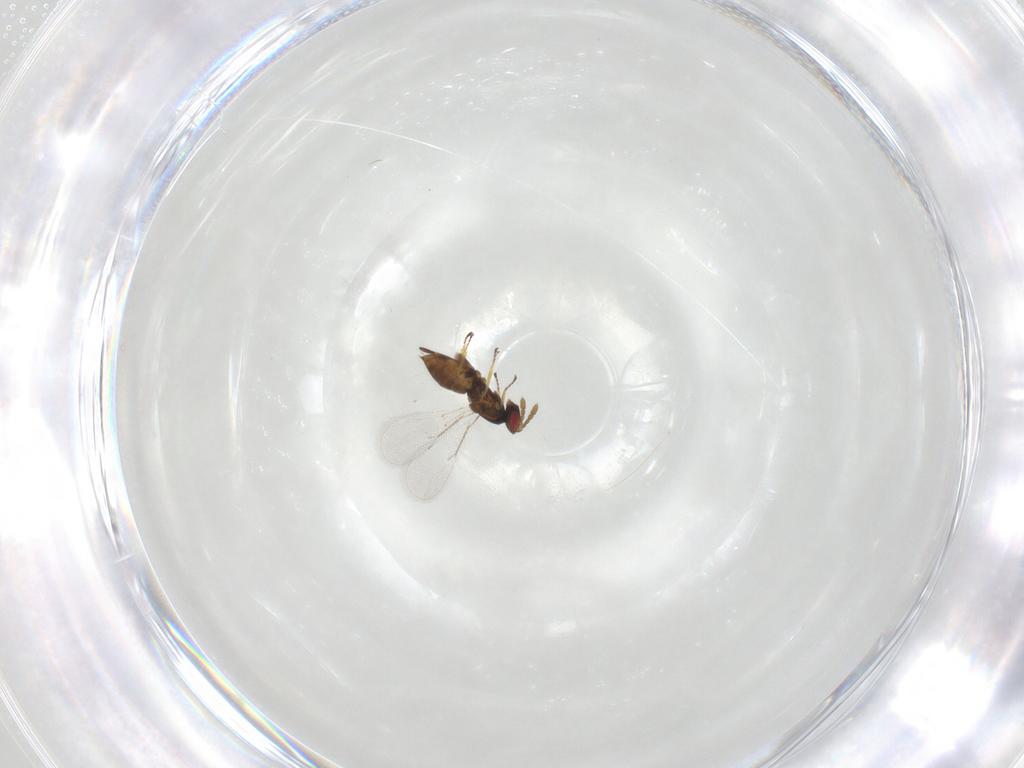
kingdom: Animalia
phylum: Arthropoda
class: Insecta
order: Hymenoptera
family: Eulophidae
